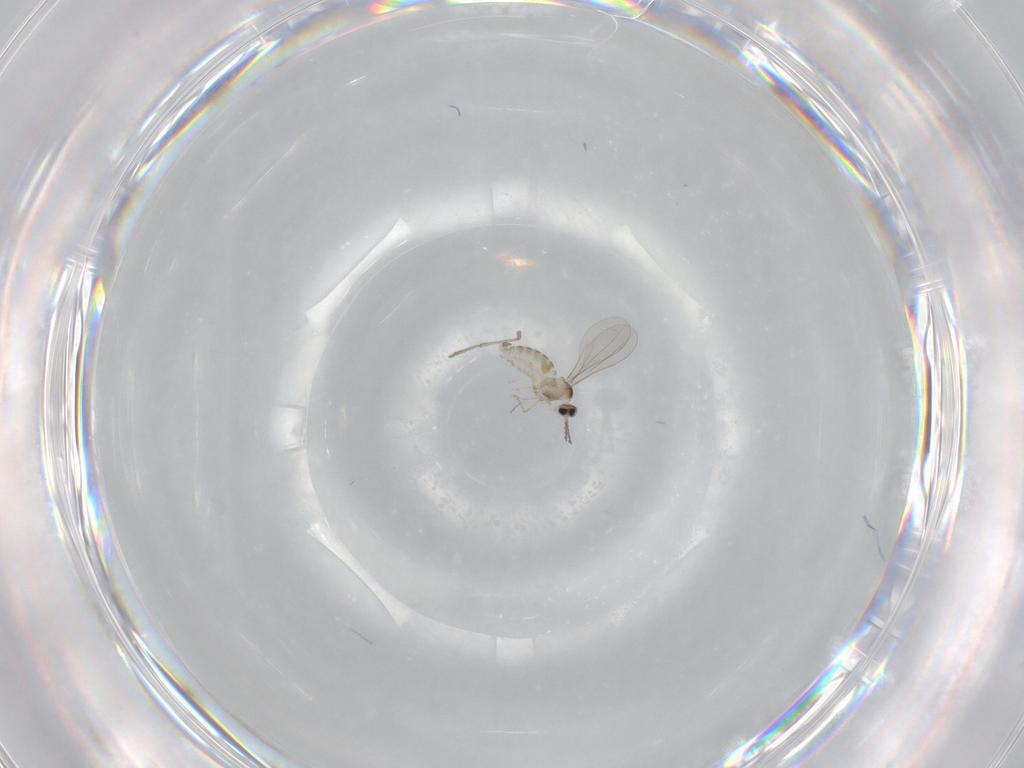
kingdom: Animalia
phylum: Arthropoda
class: Insecta
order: Diptera
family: Cecidomyiidae
